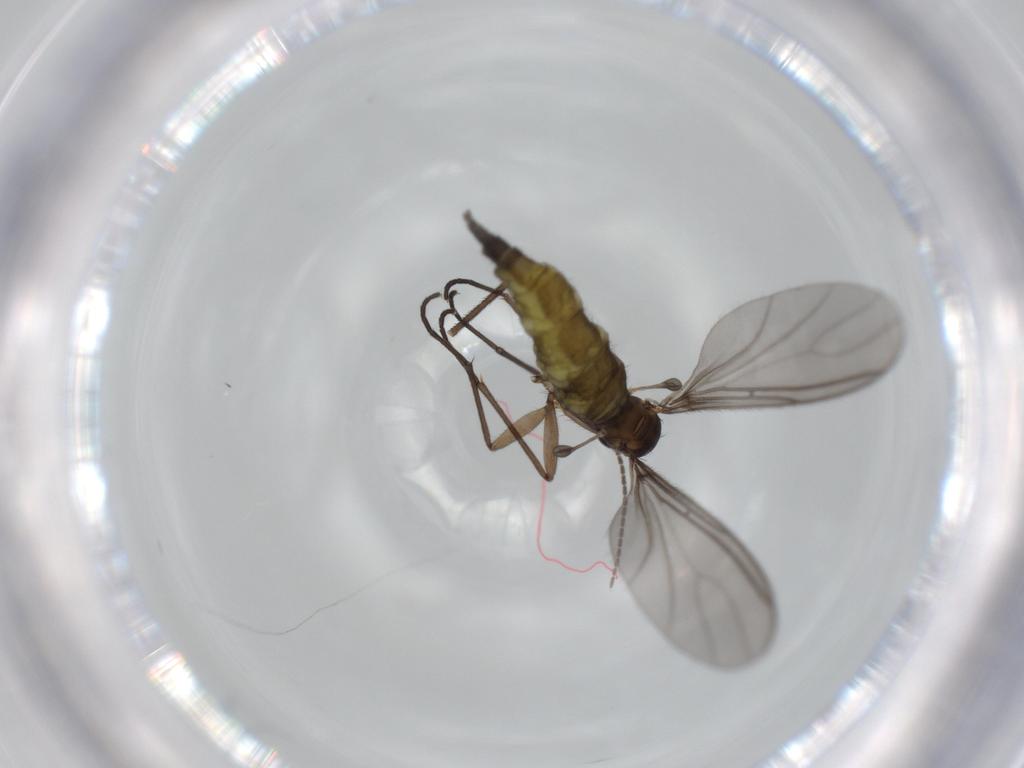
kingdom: Animalia
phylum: Arthropoda
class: Insecta
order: Diptera
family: Sciaridae
